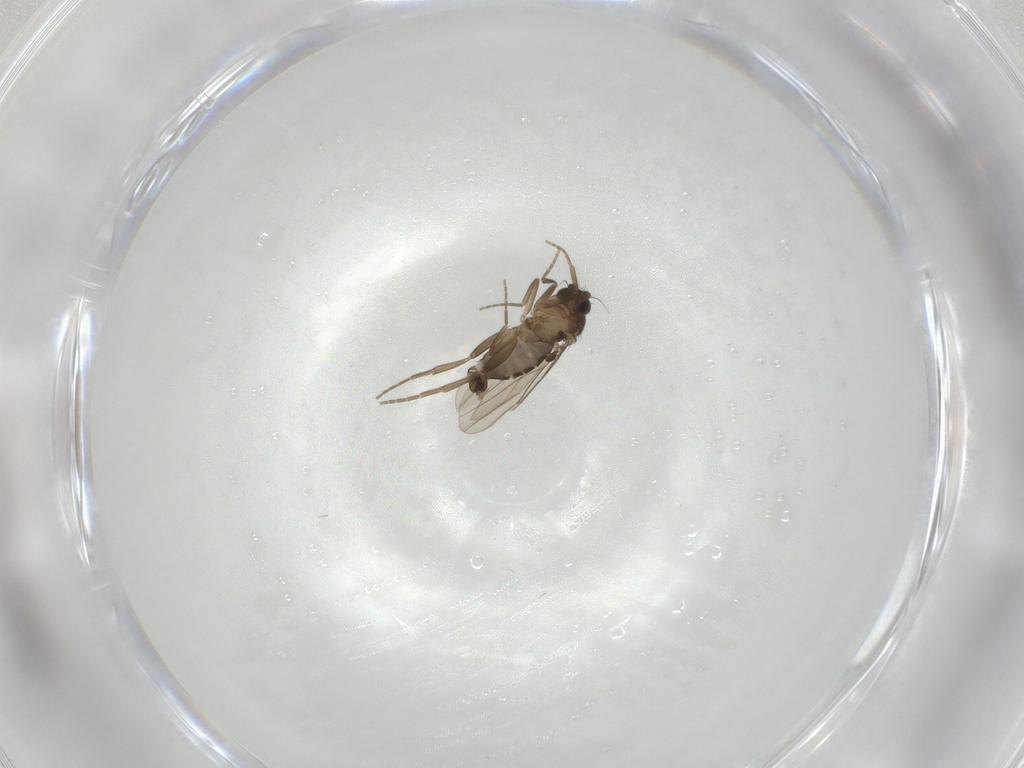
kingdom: Animalia
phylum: Arthropoda
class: Insecta
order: Diptera
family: Phoridae
